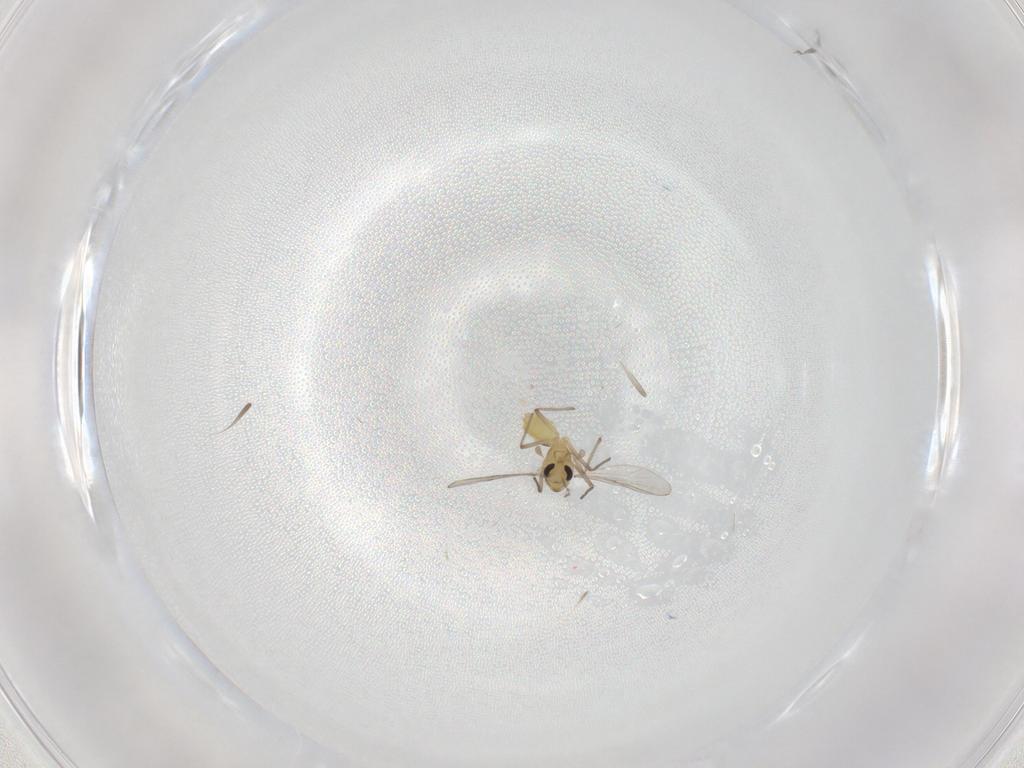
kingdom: Animalia
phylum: Arthropoda
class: Insecta
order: Diptera
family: Chironomidae
